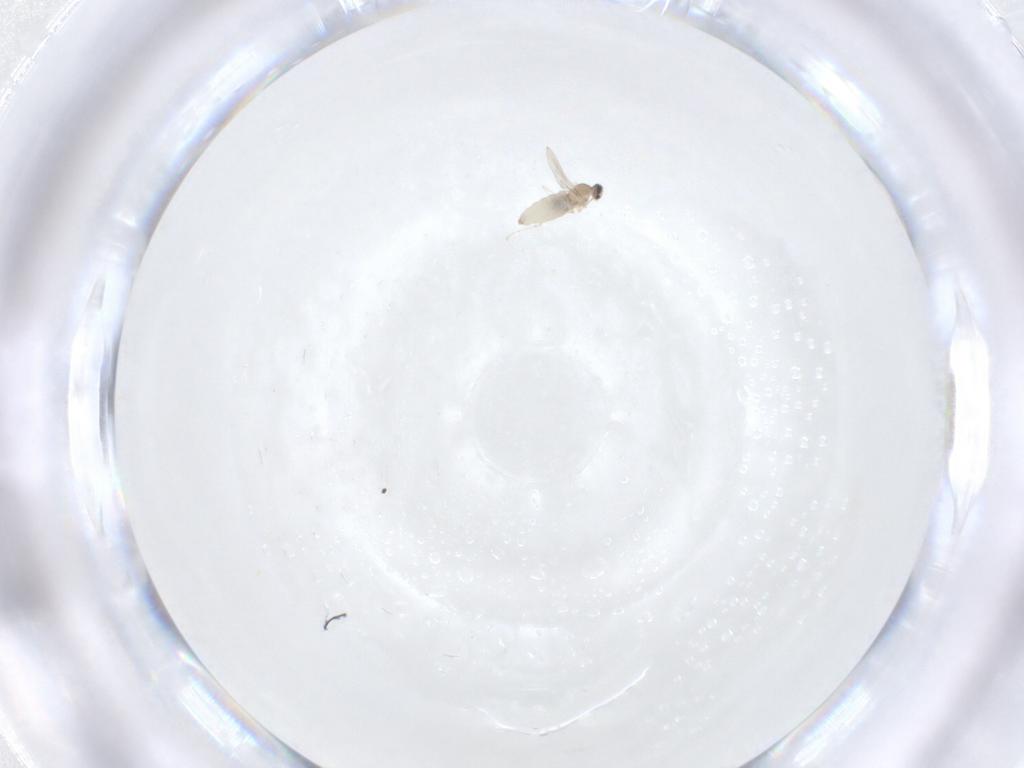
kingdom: Animalia
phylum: Arthropoda
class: Insecta
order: Diptera
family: Cecidomyiidae
